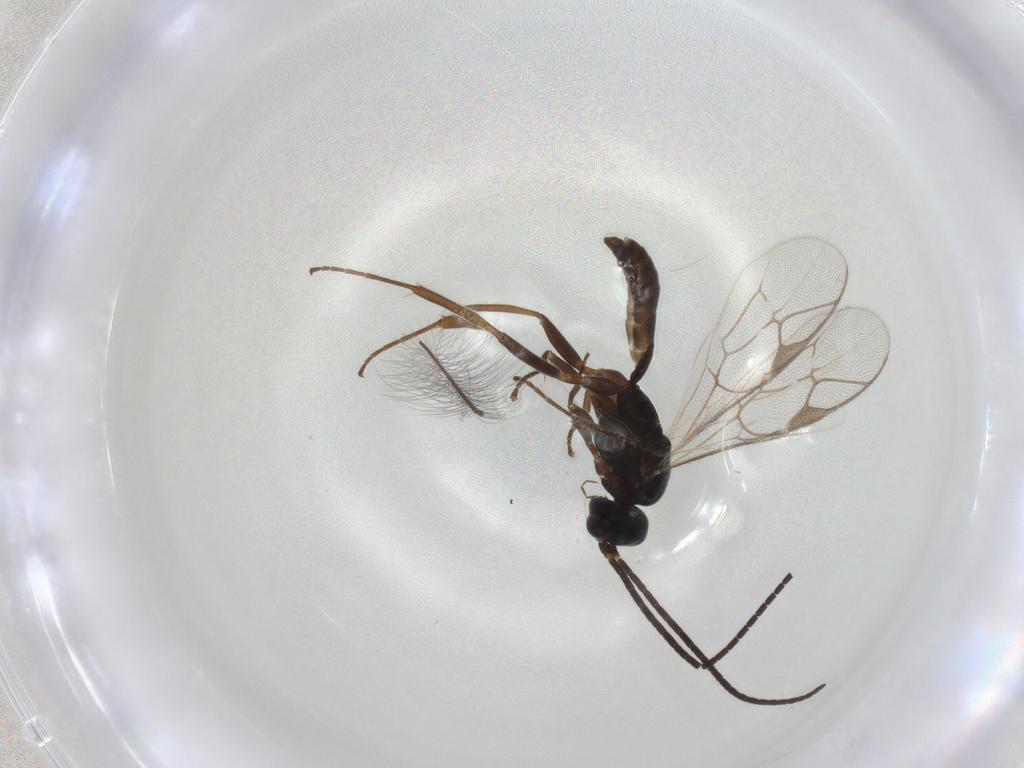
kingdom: Animalia
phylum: Arthropoda
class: Insecta
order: Hymenoptera
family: Ichneumonidae
